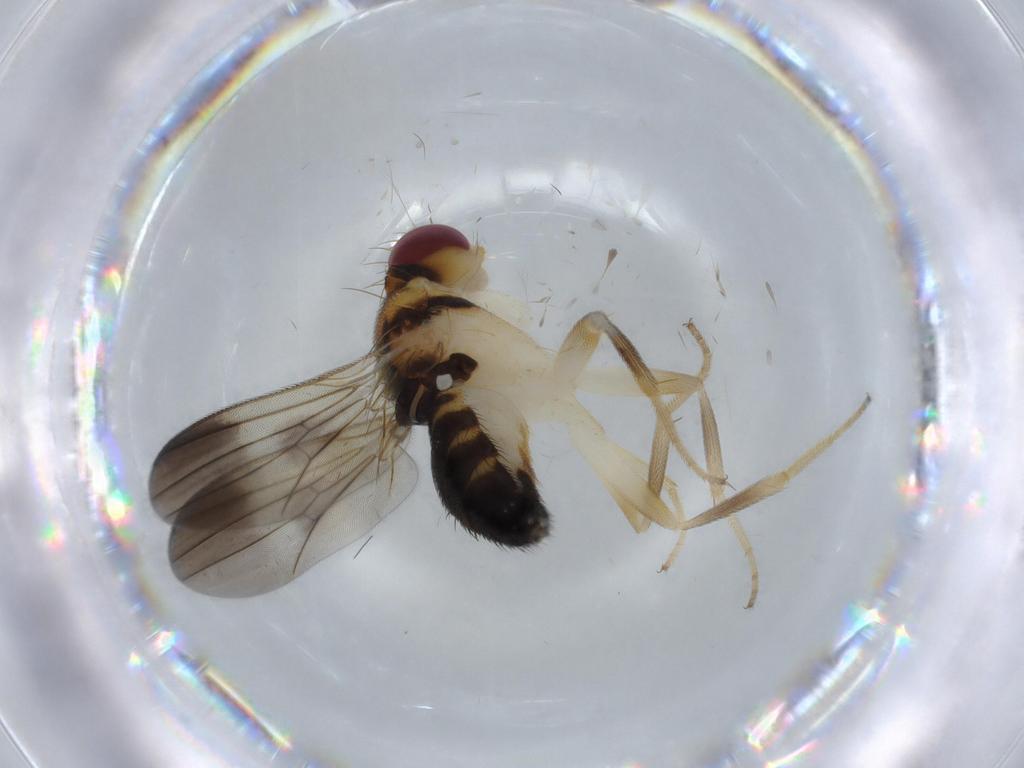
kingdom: Animalia
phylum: Arthropoda
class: Insecta
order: Diptera
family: Clusiidae
